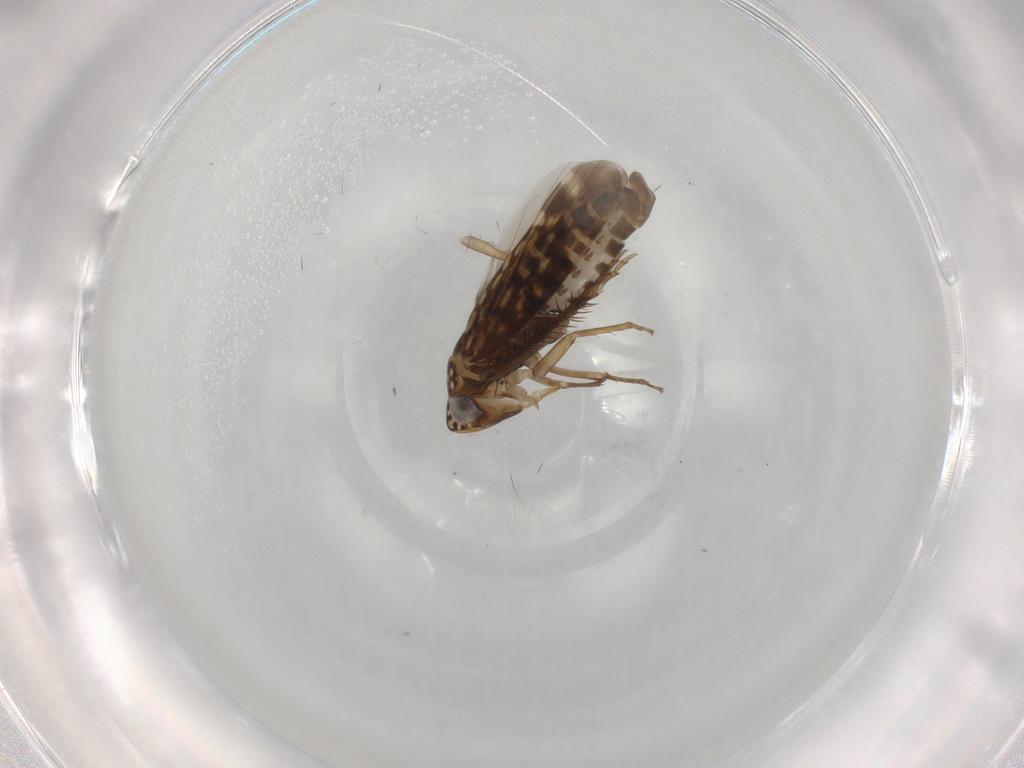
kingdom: Animalia
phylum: Arthropoda
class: Insecta
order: Hemiptera
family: Cicadellidae
